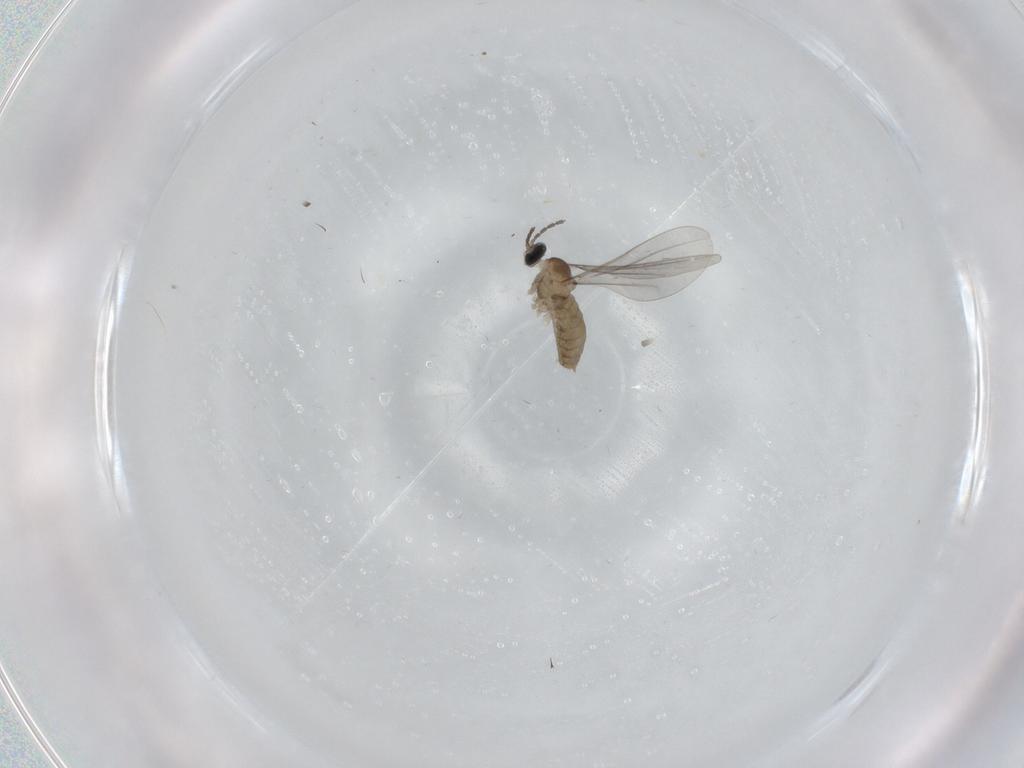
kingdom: Animalia
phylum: Arthropoda
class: Insecta
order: Diptera
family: Cecidomyiidae
